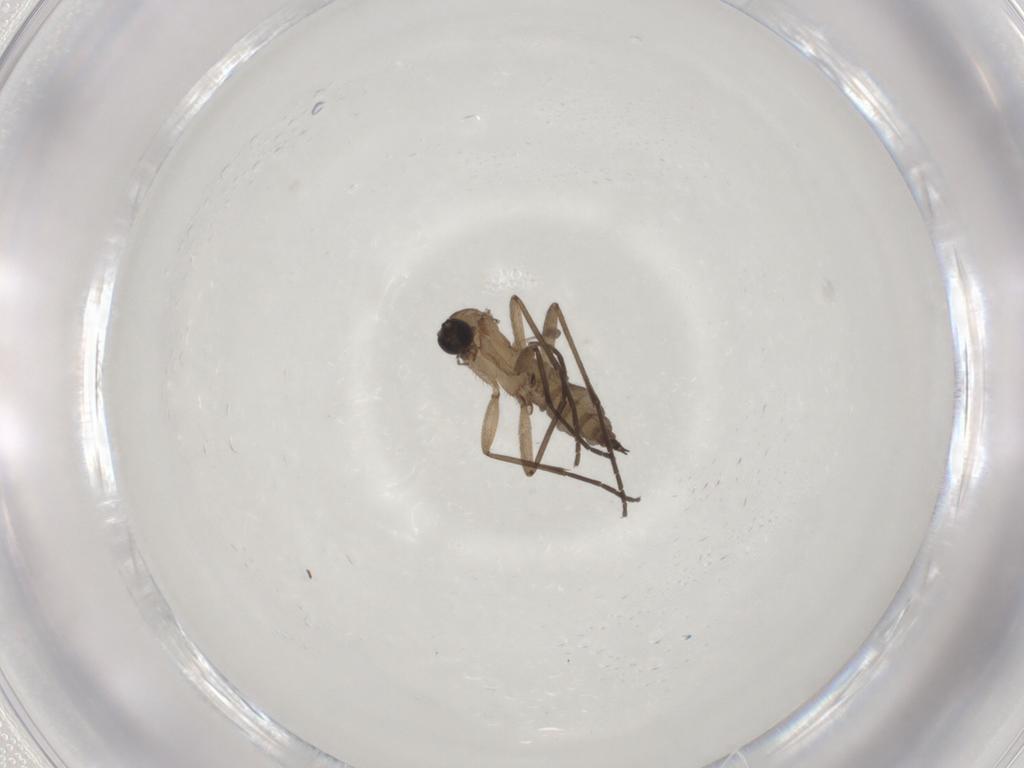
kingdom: Animalia
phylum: Arthropoda
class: Insecta
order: Diptera
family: Sciaridae
